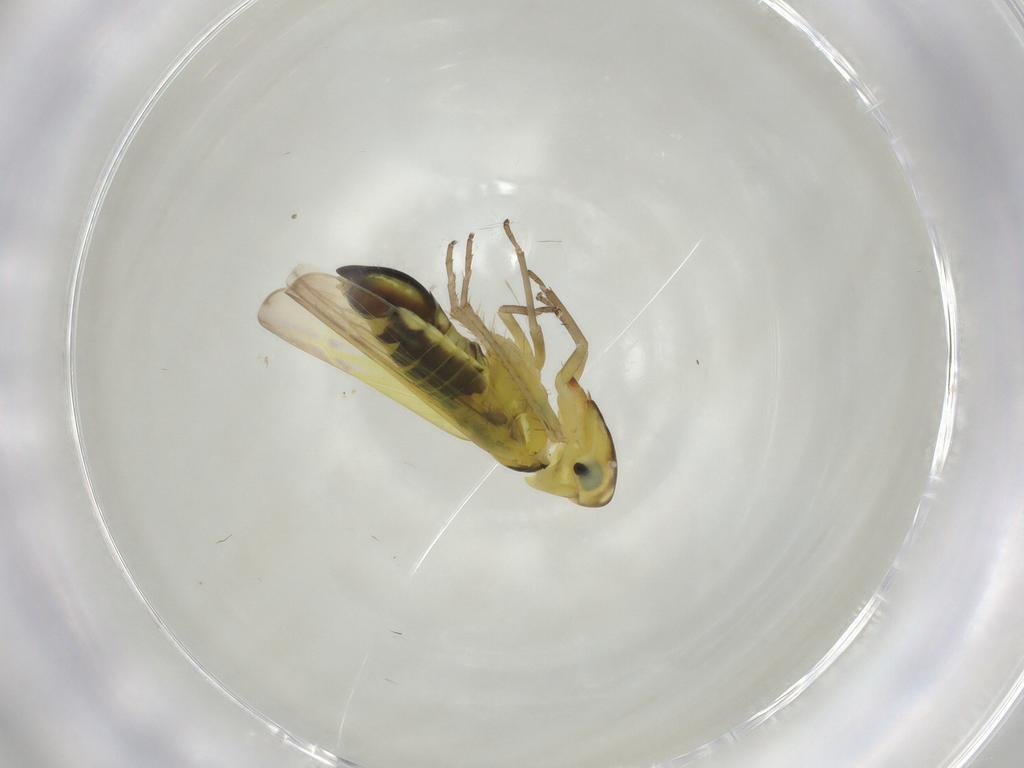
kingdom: Animalia
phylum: Arthropoda
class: Insecta
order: Hemiptera
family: Cicadellidae
